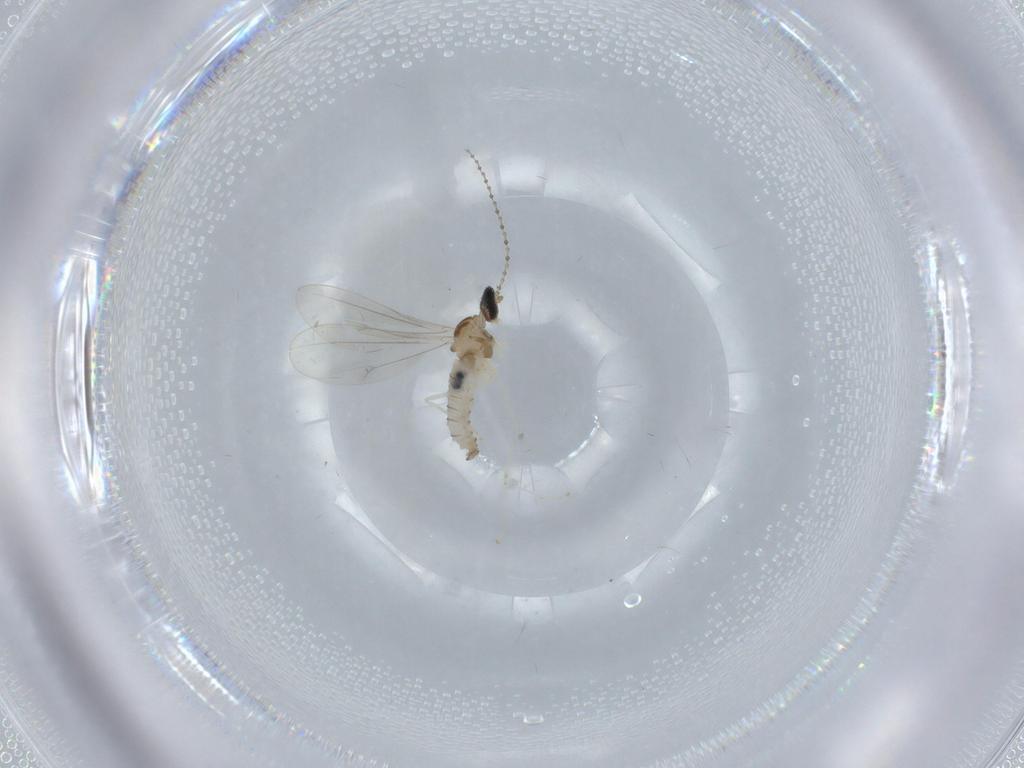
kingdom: Animalia
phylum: Arthropoda
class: Insecta
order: Diptera
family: Cecidomyiidae
